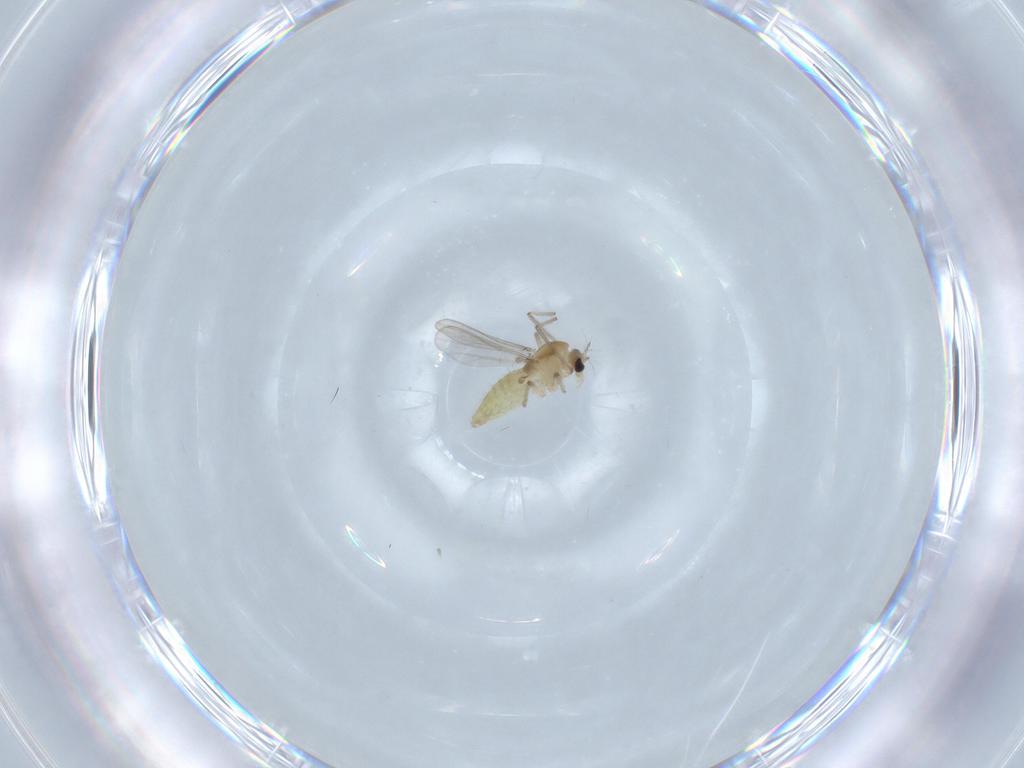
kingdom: Animalia
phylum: Arthropoda
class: Insecta
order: Diptera
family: Chironomidae
